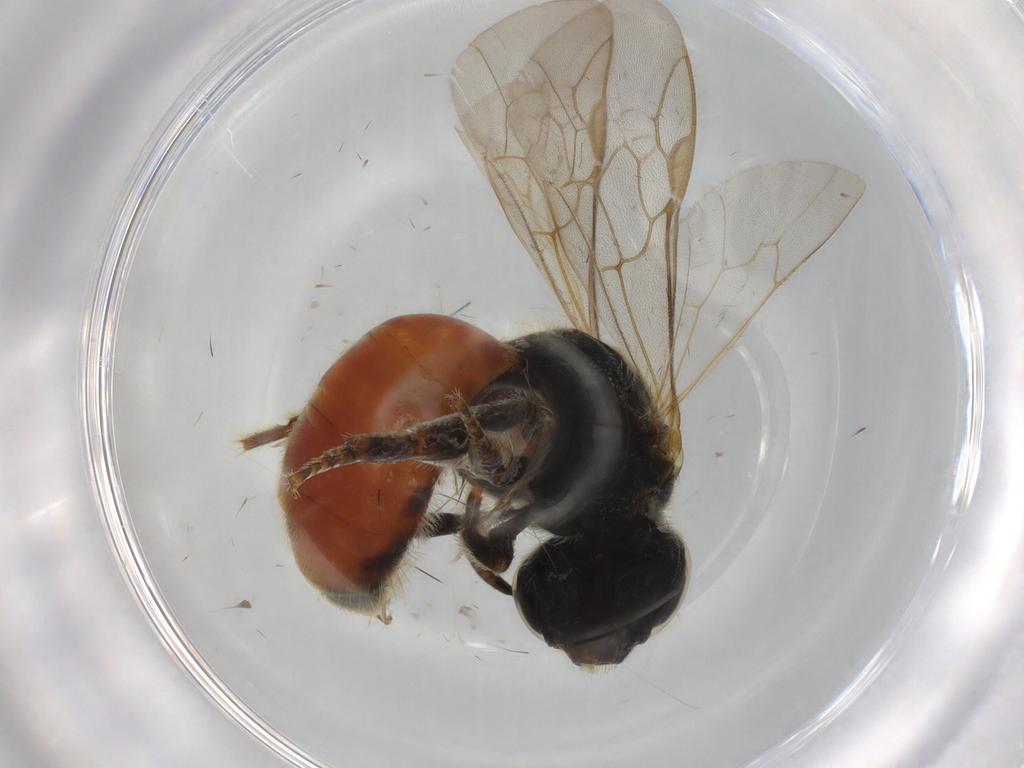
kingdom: Animalia
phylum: Arthropoda
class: Insecta
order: Hymenoptera
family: Halictidae
